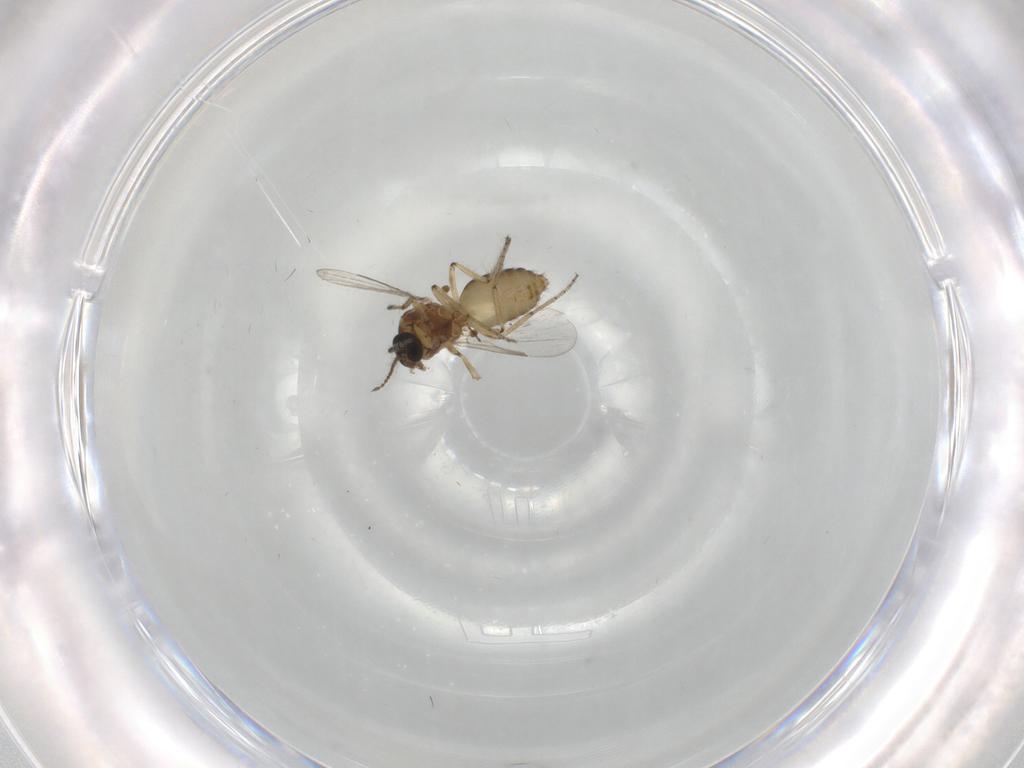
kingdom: Animalia
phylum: Arthropoda
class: Insecta
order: Diptera
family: Ceratopogonidae
